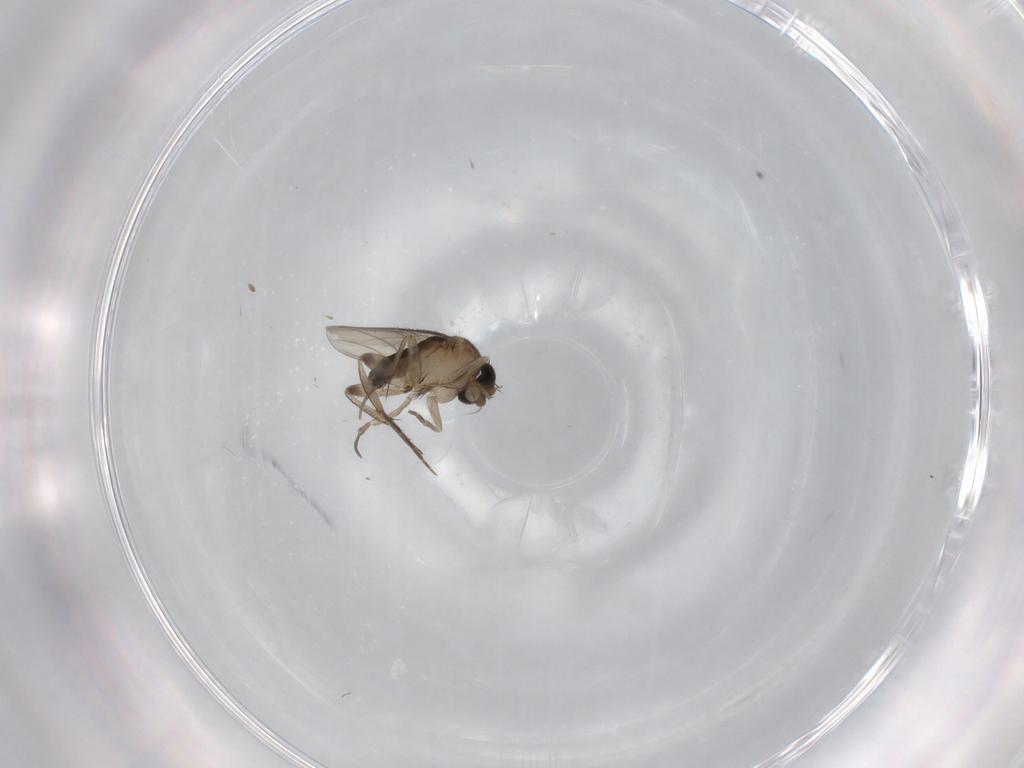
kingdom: Animalia
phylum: Arthropoda
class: Insecta
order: Diptera
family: Phoridae
